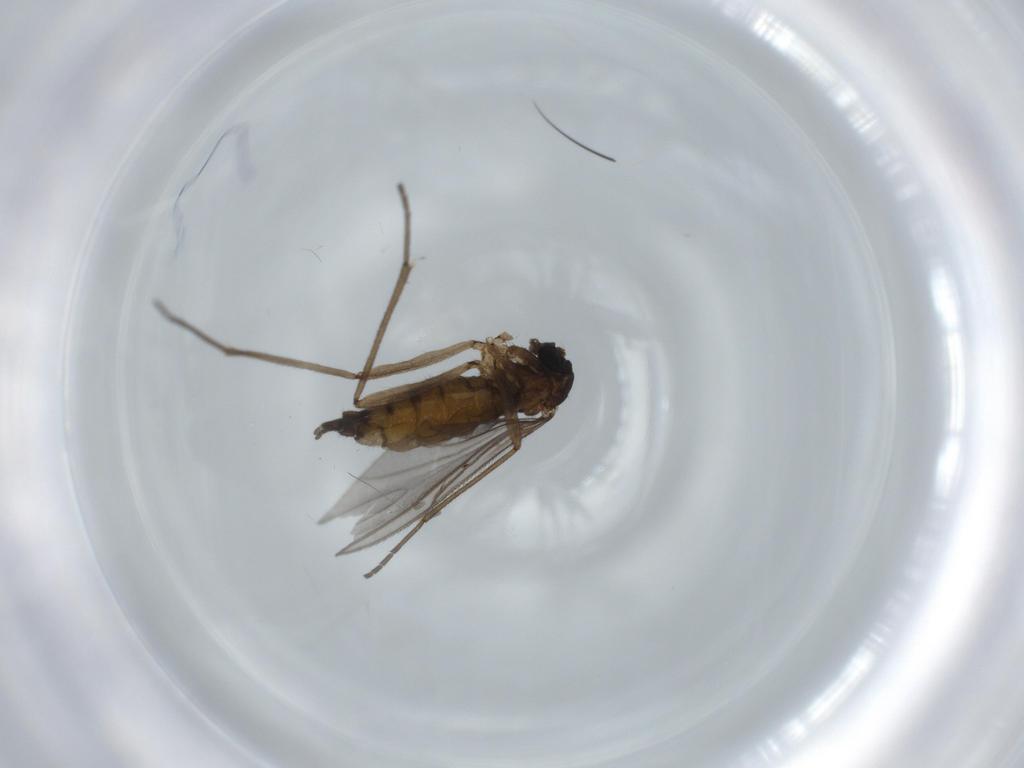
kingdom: Animalia
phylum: Arthropoda
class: Insecta
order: Diptera
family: Sciaridae
